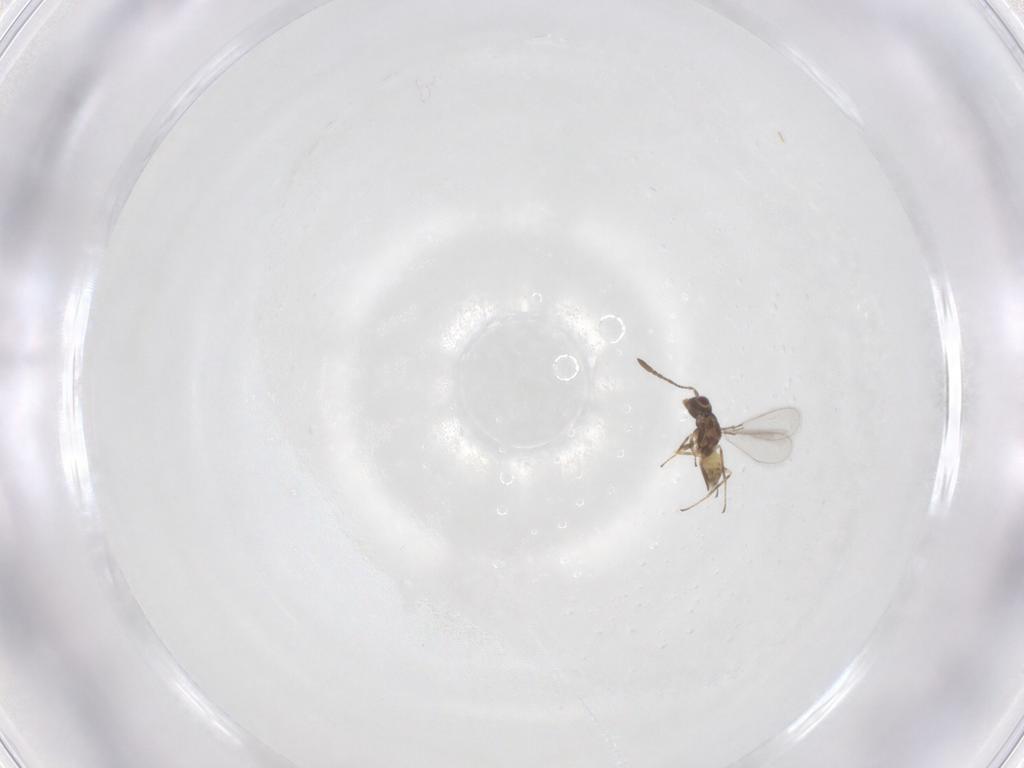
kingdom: Animalia
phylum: Arthropoda
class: Insecta
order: Hymenoptera
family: Mymaridae
